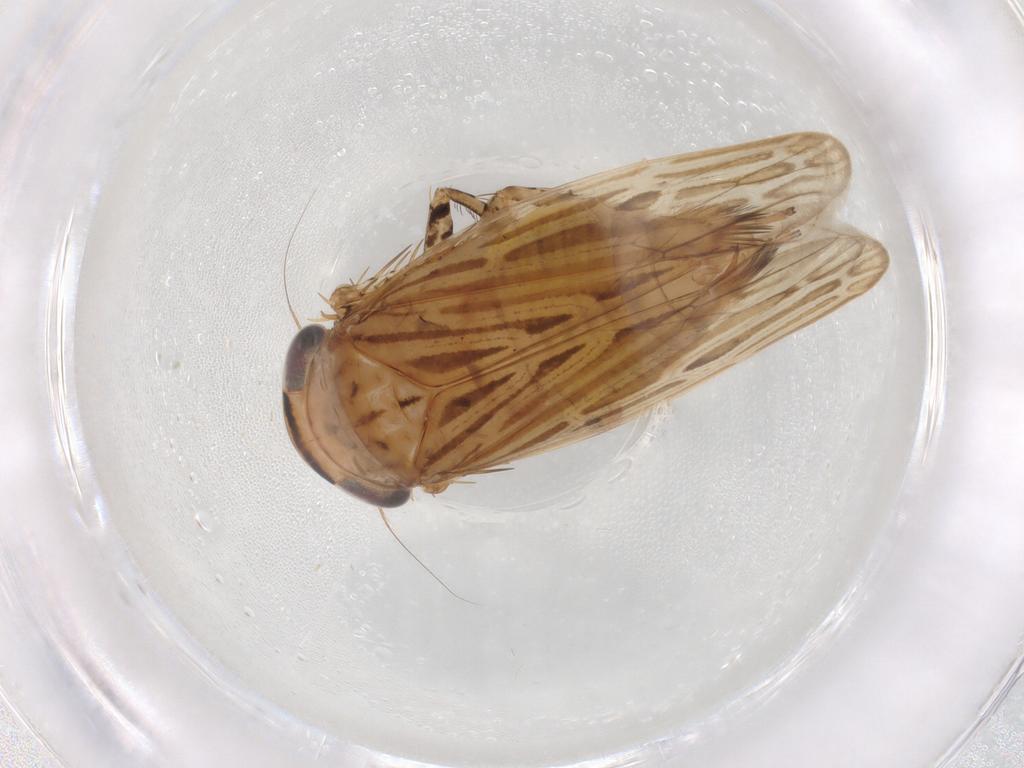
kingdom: Animalia
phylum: Arthropoda
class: Insecta
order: Hemiptera
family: Cicadellidae
